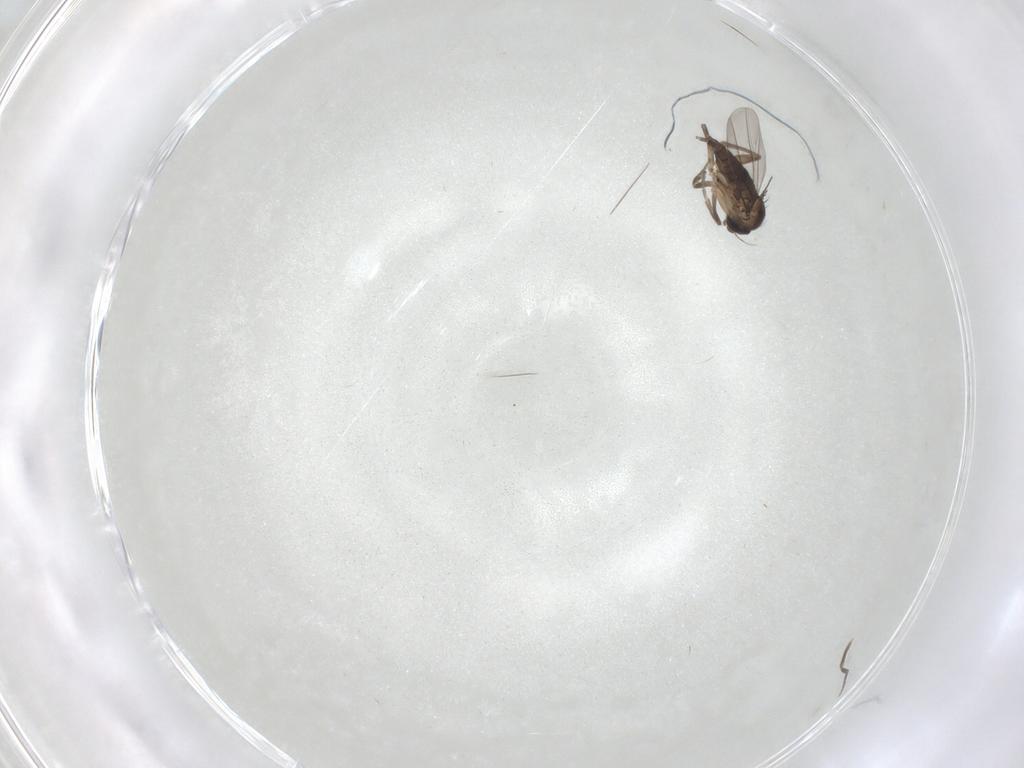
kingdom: Animalia
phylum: Arthropoda
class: Insecta
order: Diptera
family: Phoridae
